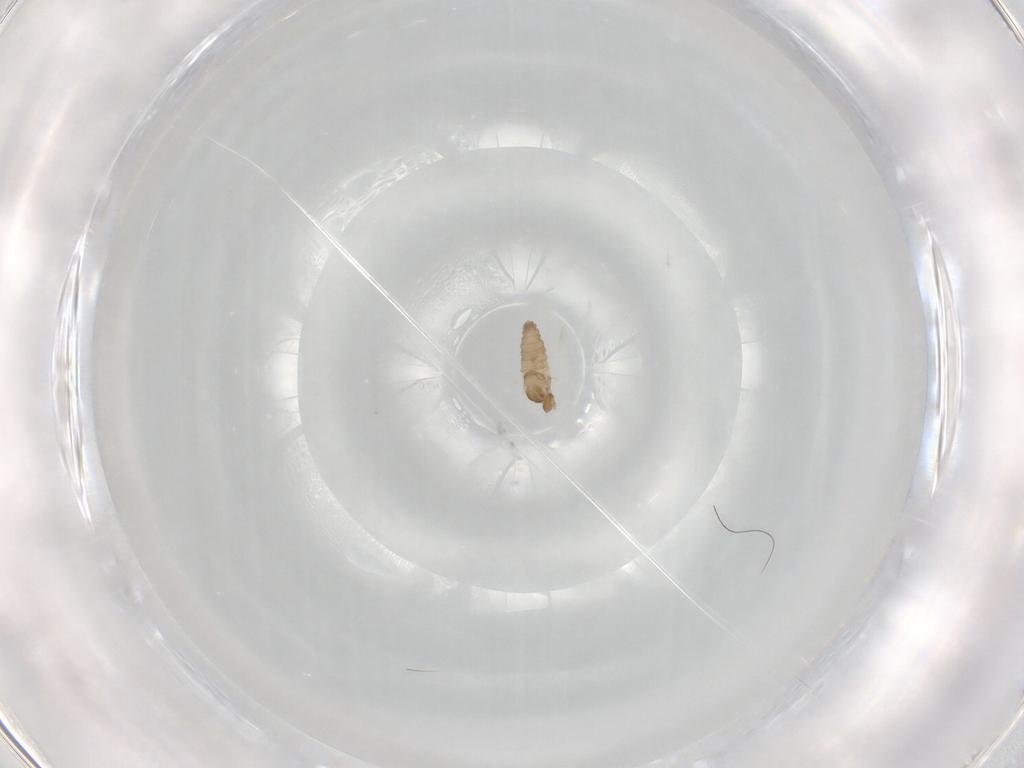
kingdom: Animalia
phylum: Arthropoda
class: Insecta
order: Diptera
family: Cecidomyiidae
